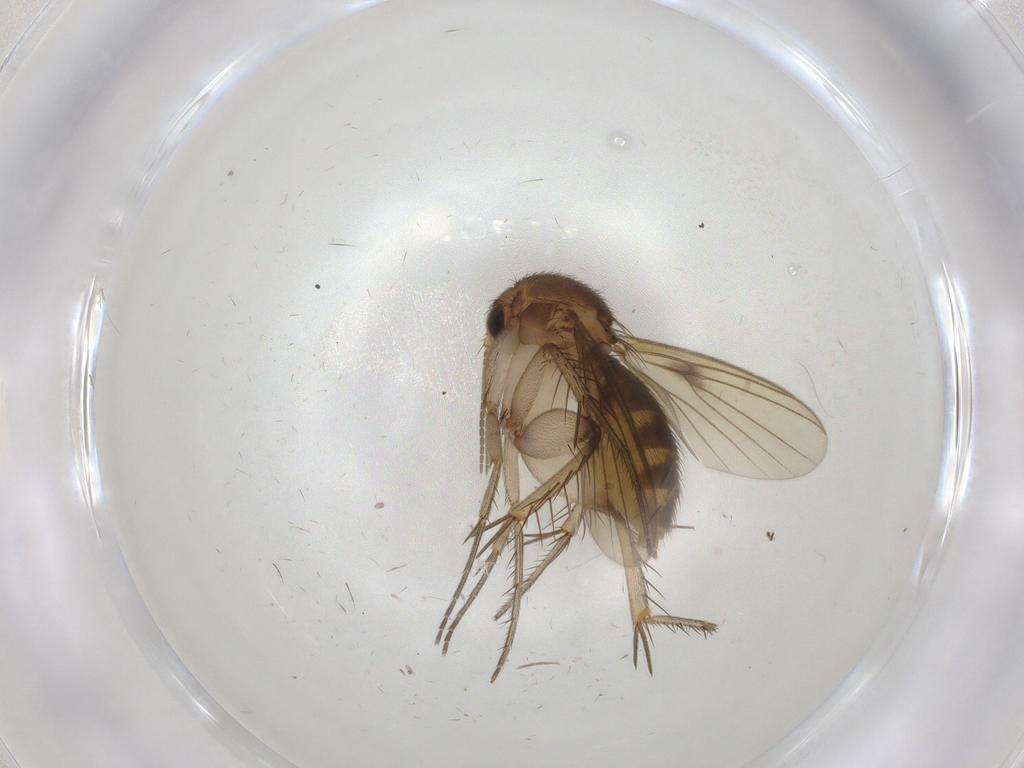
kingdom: Animalia
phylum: Arthropoda
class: Insecta
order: Diptera
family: Mycetophilidae
